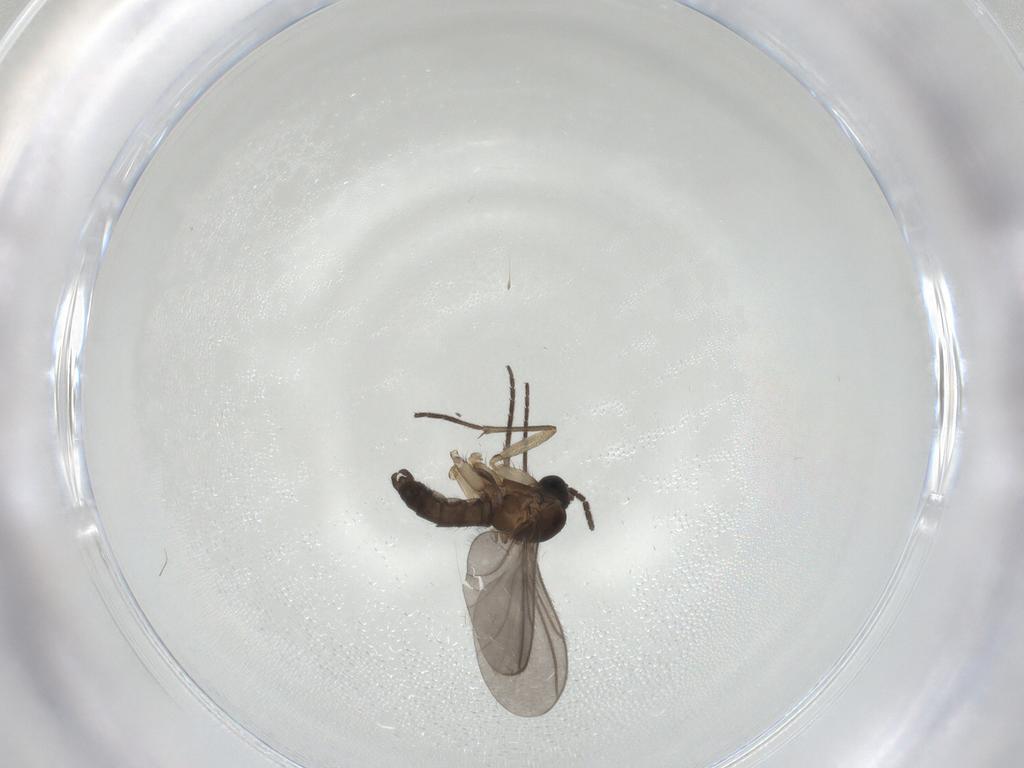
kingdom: Animalia
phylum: Arthropoda
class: Insecta
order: Diptera
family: Sciaridae
